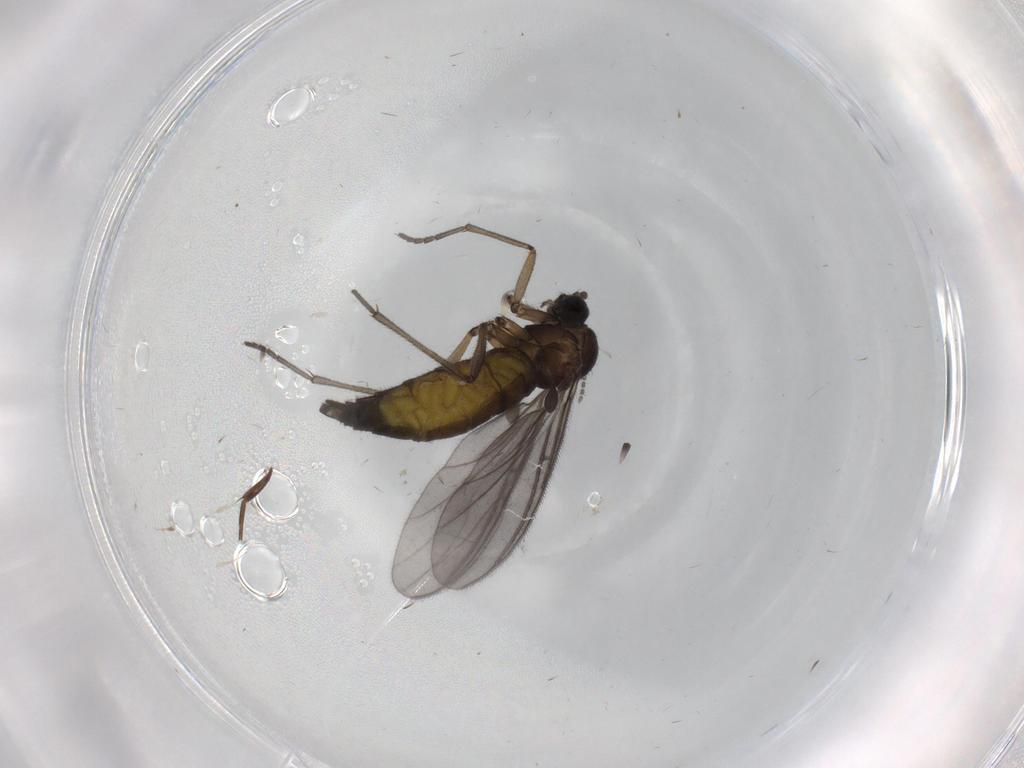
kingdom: Animalia
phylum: Arthropoda
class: Insecta
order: Diptera
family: Sciaridae
